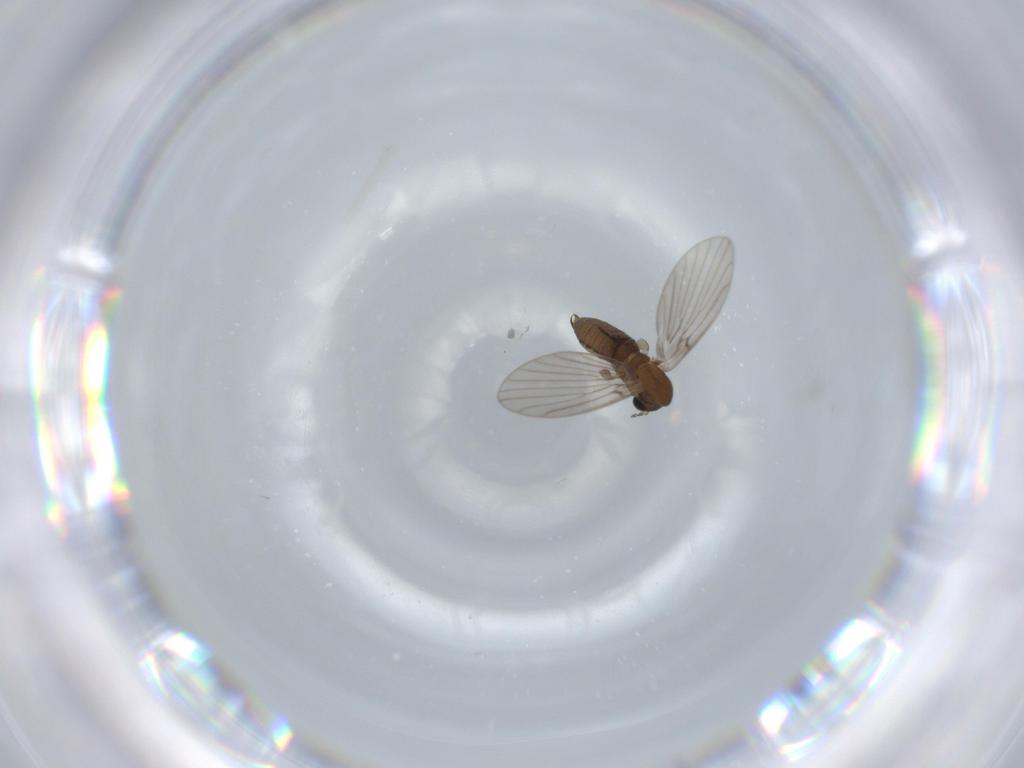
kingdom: Animalia
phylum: Arthropoda
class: Insecta
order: Diptera
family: Psychodidae
